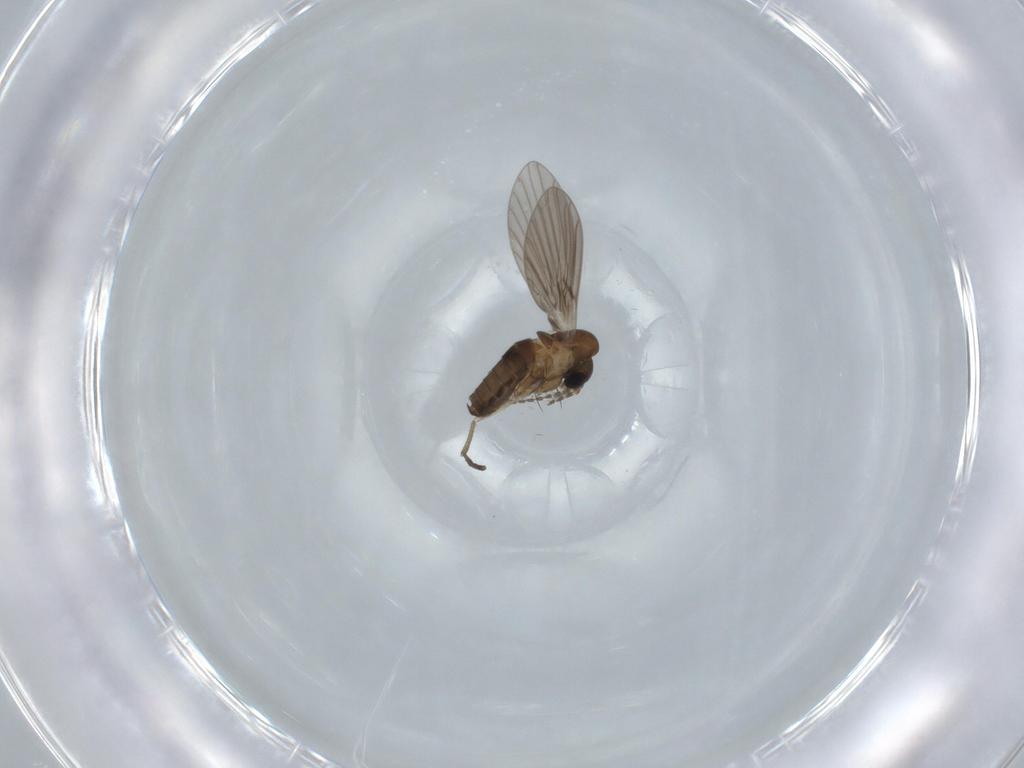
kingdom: Animalia
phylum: Arthropoda
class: Insecta
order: Diptera
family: Psychodidae
